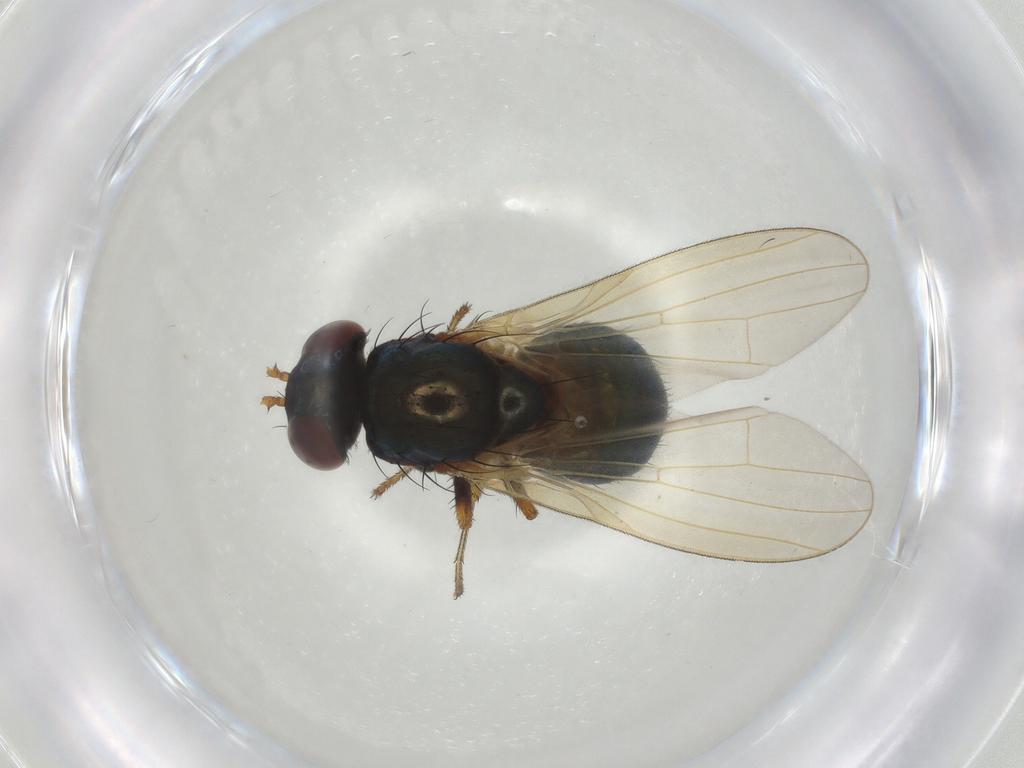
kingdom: Animalia
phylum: Arthropoda
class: Insecta
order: Diptera
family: Lauxaniidae
